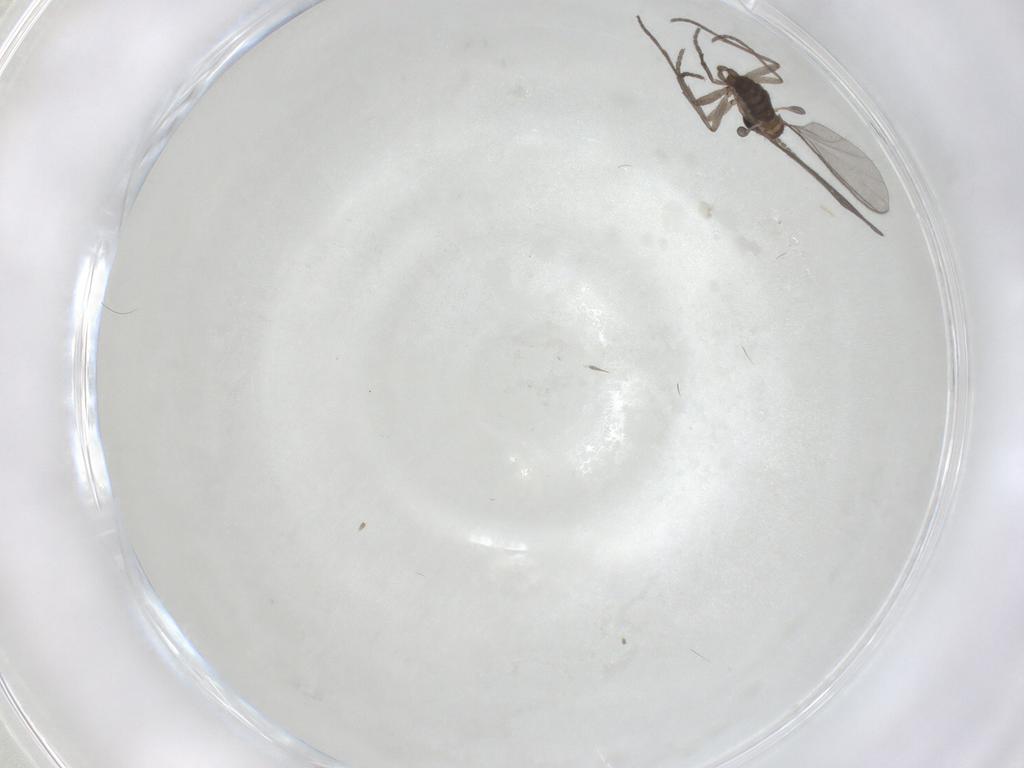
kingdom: Animalia
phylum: Arthropoda
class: Insecta
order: Diptera
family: Sciaridae
